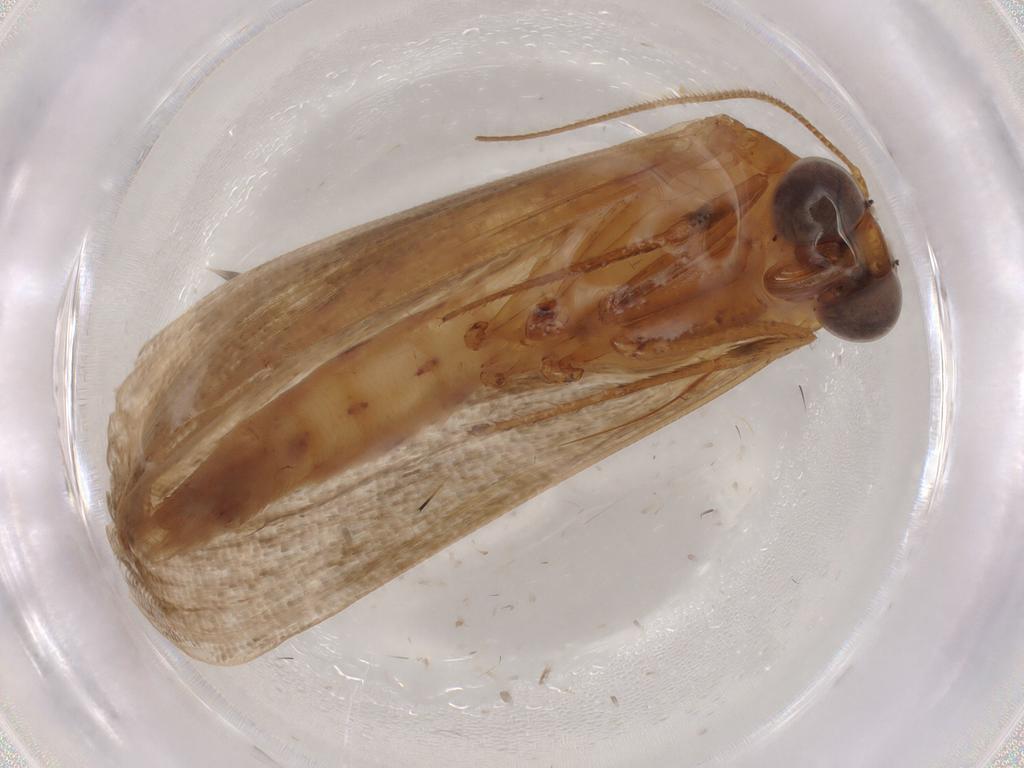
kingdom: Animalia
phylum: Arthropoda
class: Insecta
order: Lepidoptera
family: Erebidae
